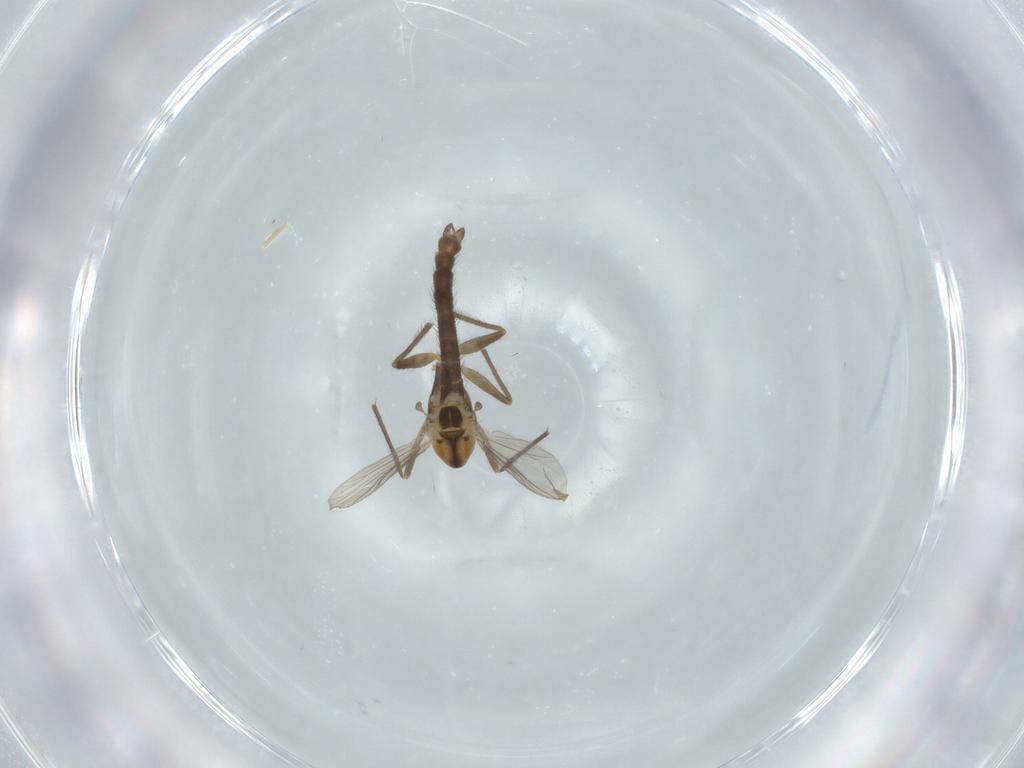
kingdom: Animalia
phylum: Arthropoda
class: Insecta
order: Diptera
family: Chironomidae
